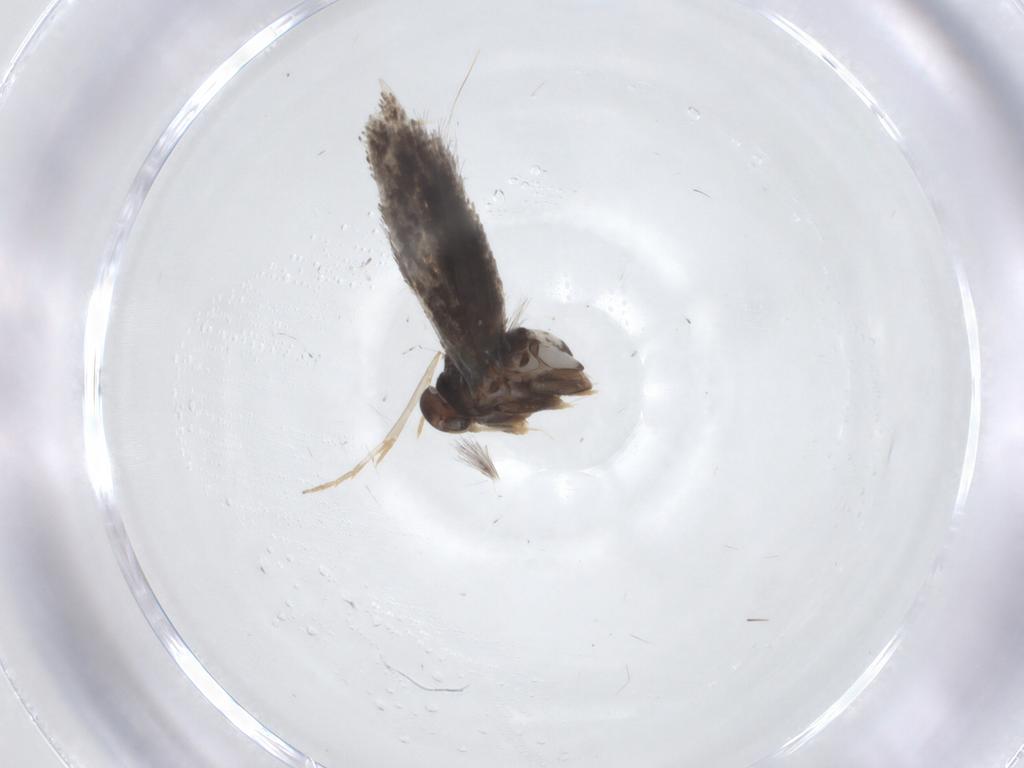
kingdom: Animalia
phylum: Arthropoda
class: Insecta
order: Lepidoptera
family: Elachistidae
